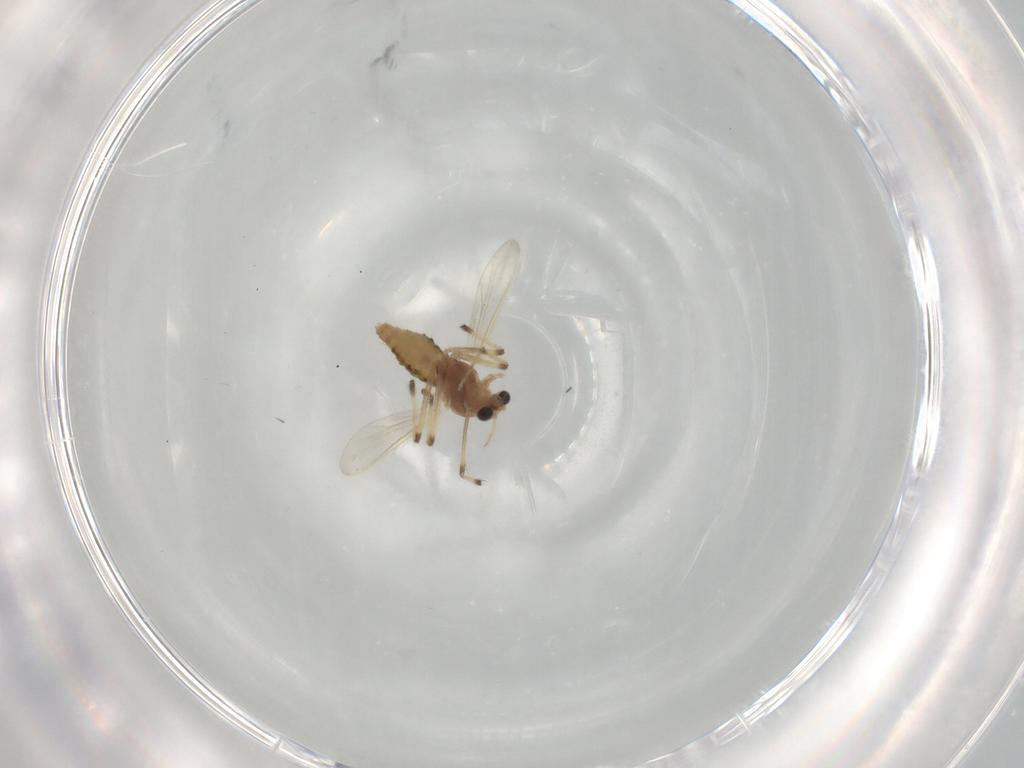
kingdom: Animalia
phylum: Arthropoda
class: Insecta
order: Diptera
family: Chironomidae
